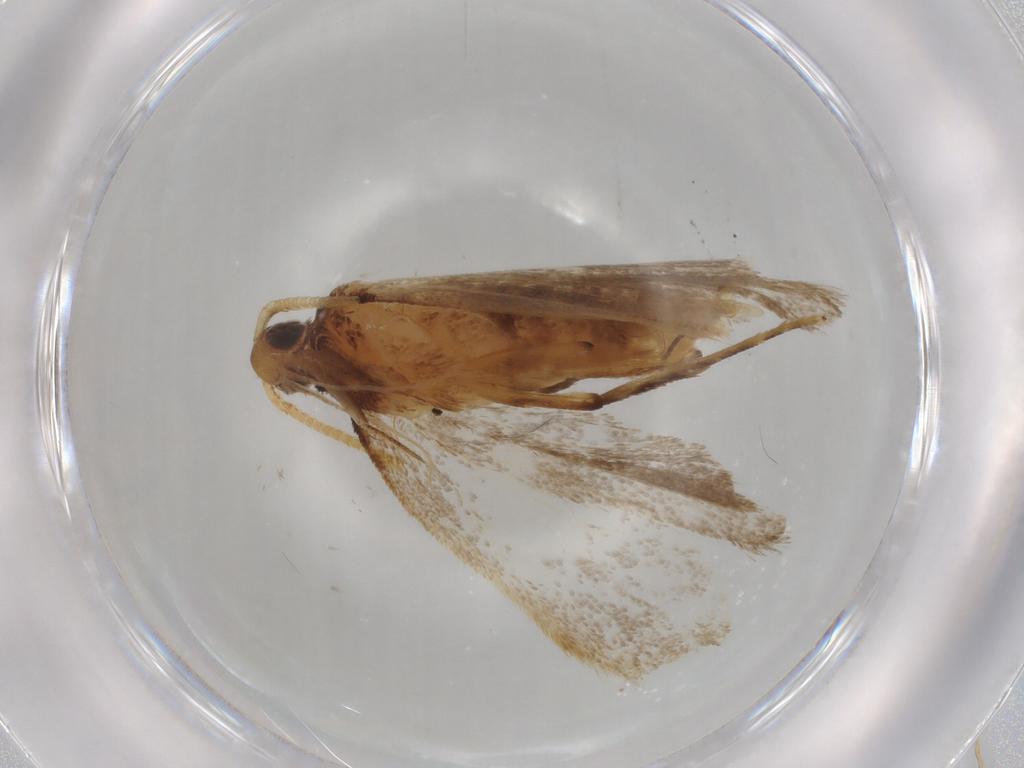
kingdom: Animalia
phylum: Arthropoda
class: Insecta
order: Lepidoptera
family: Lecithoceridae
